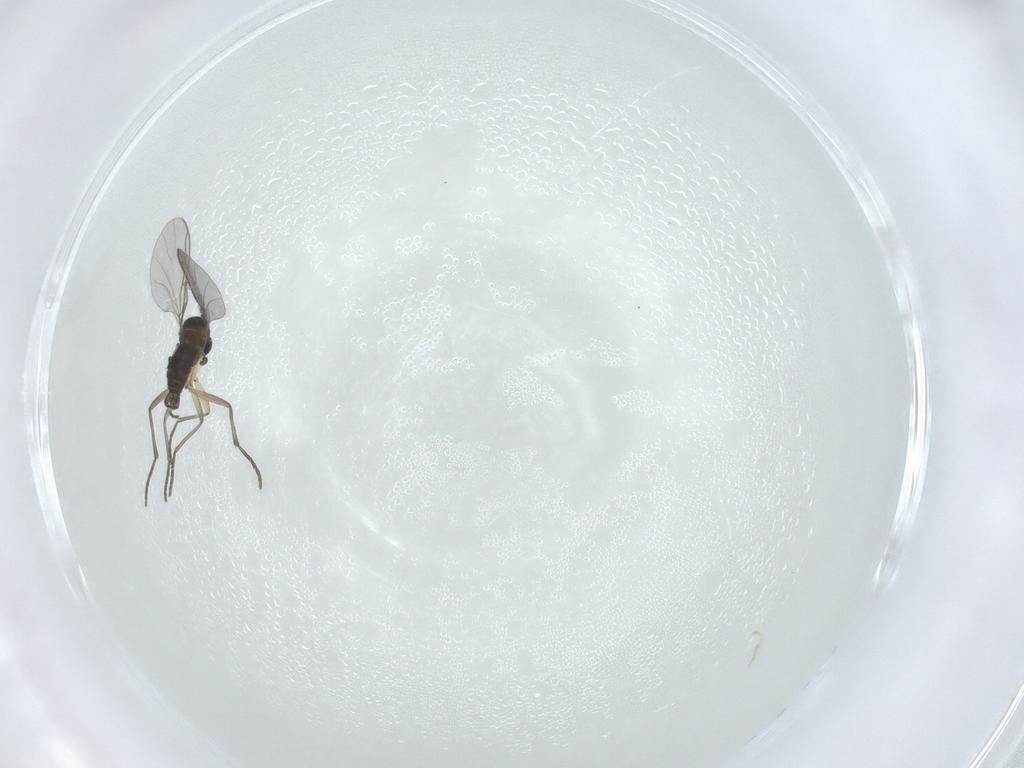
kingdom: Animalia
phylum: Arthropoda
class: Insecta
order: Diptera
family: Sciaridae
